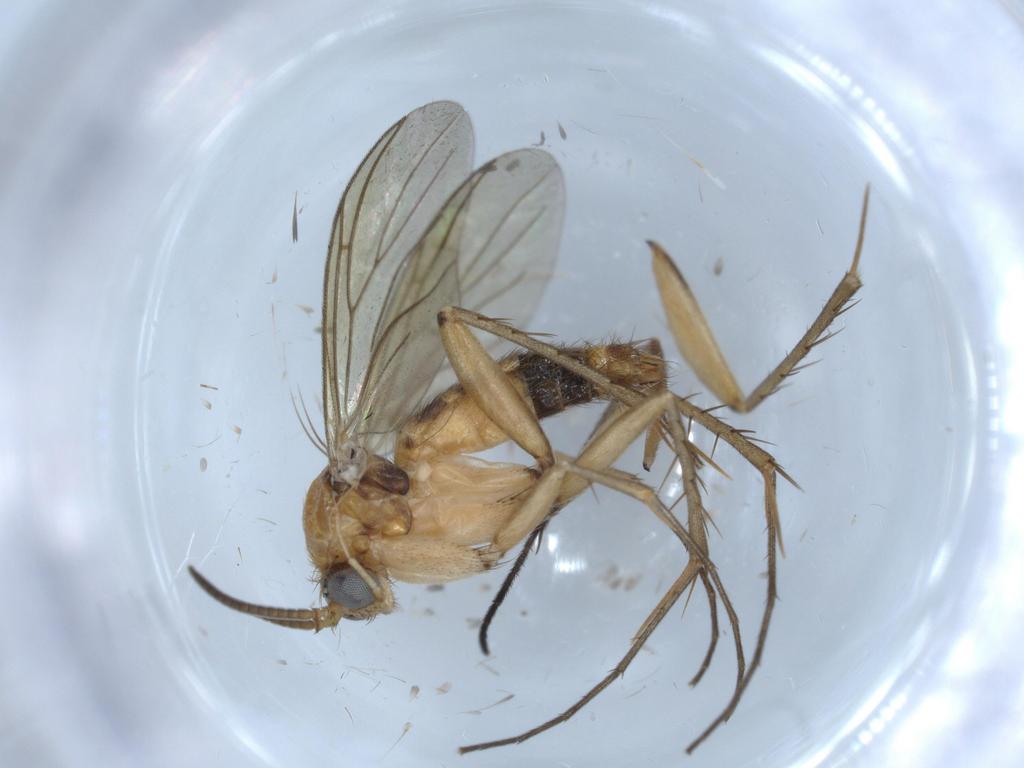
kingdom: Animalia
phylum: Arthropoda
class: Insecta
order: Diptera
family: Mycetophilidae
